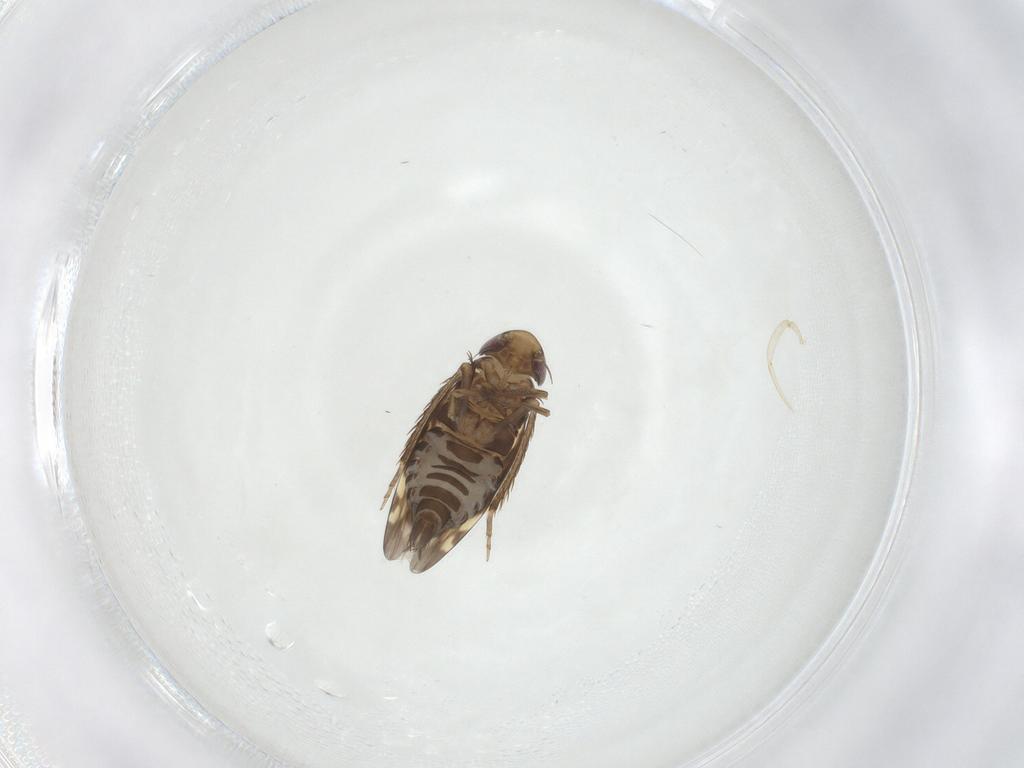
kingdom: Animalia
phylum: Arthropoda
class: Insecta
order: Hemiptera
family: Cicadellidae
